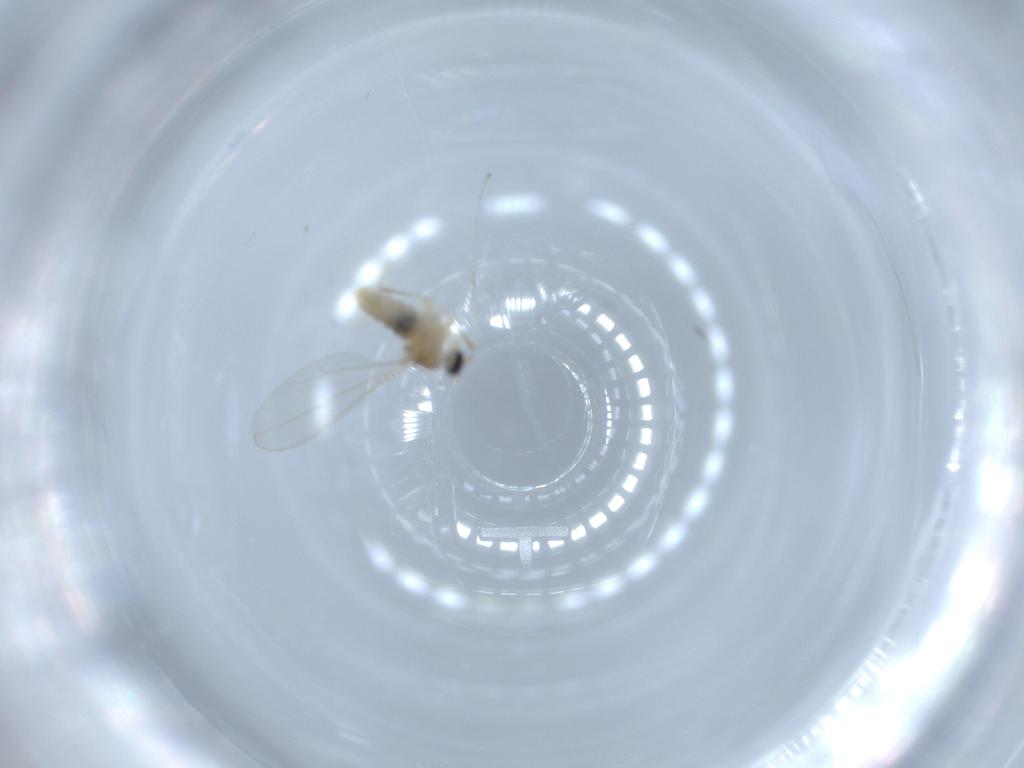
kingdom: Animalia
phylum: Arthropoda
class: Insecta
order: Diptera
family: Cecidomyiidae
